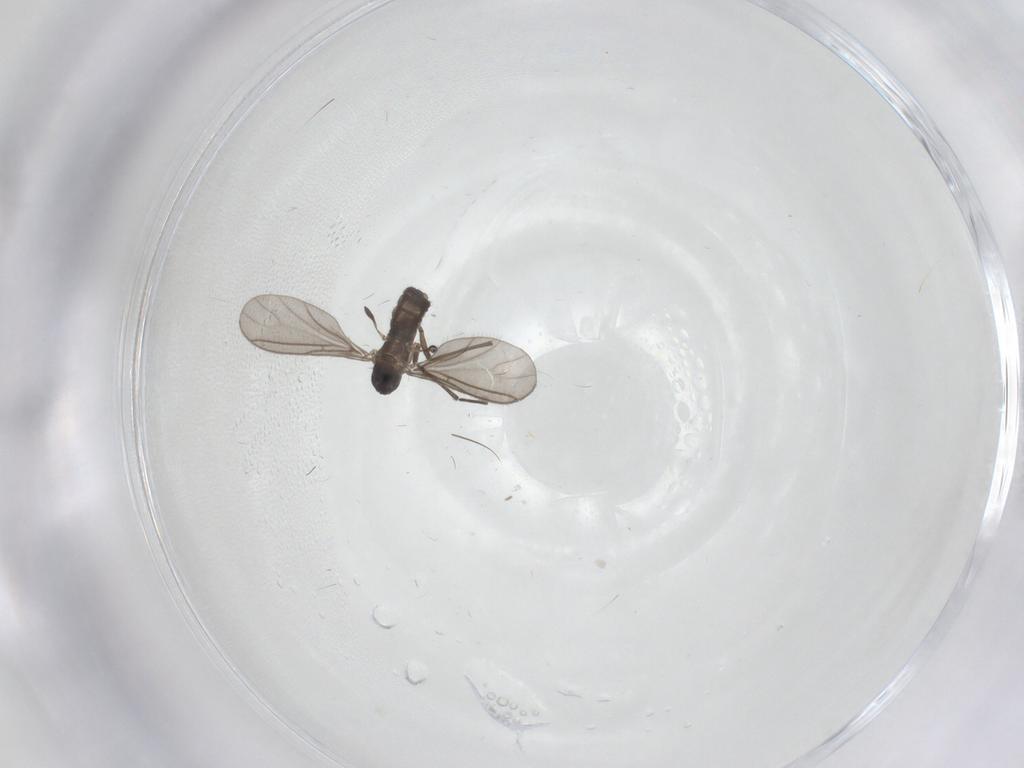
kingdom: Animalia
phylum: Arthropoda
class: Insecta
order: Diptera
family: Sciaridae
